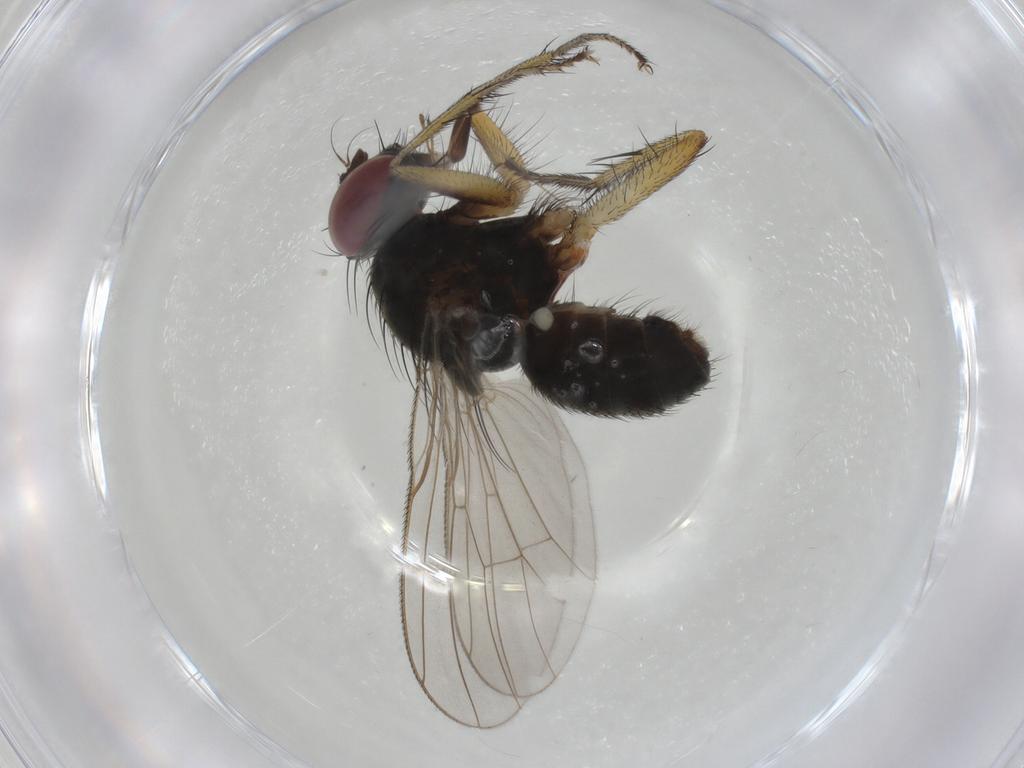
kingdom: Animalia
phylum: Arthropoda
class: Insecta
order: Diptera
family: Muscidae
